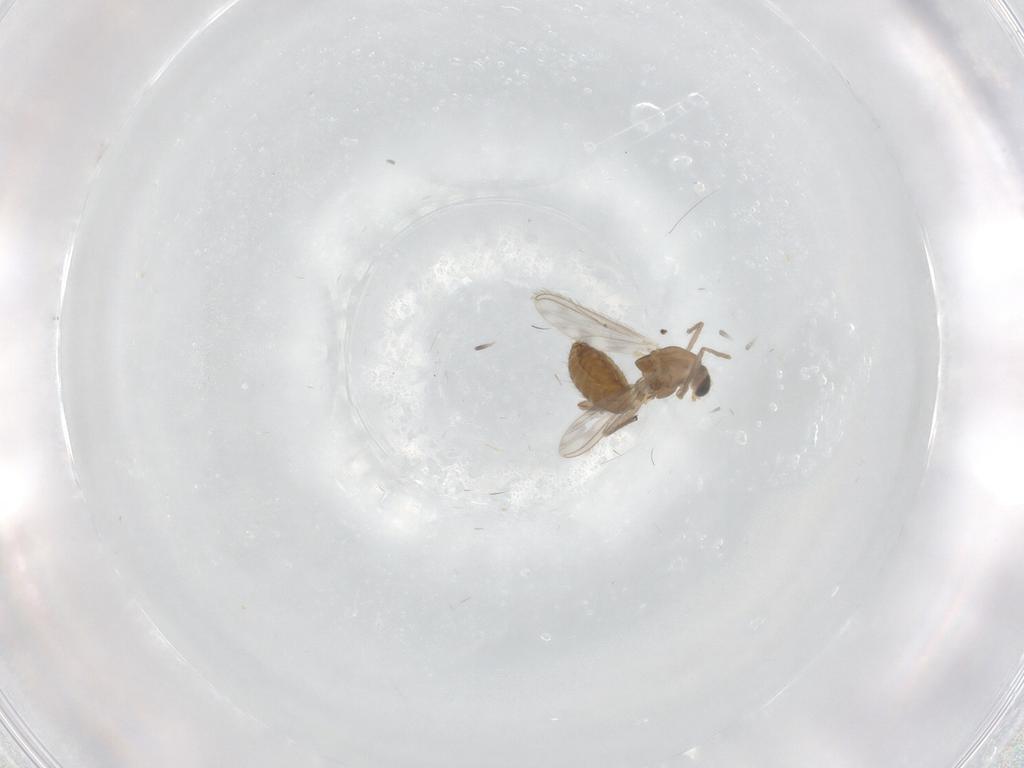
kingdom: Animalia
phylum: Arthropoda
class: Insecta
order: Diptera
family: Chironomidae
